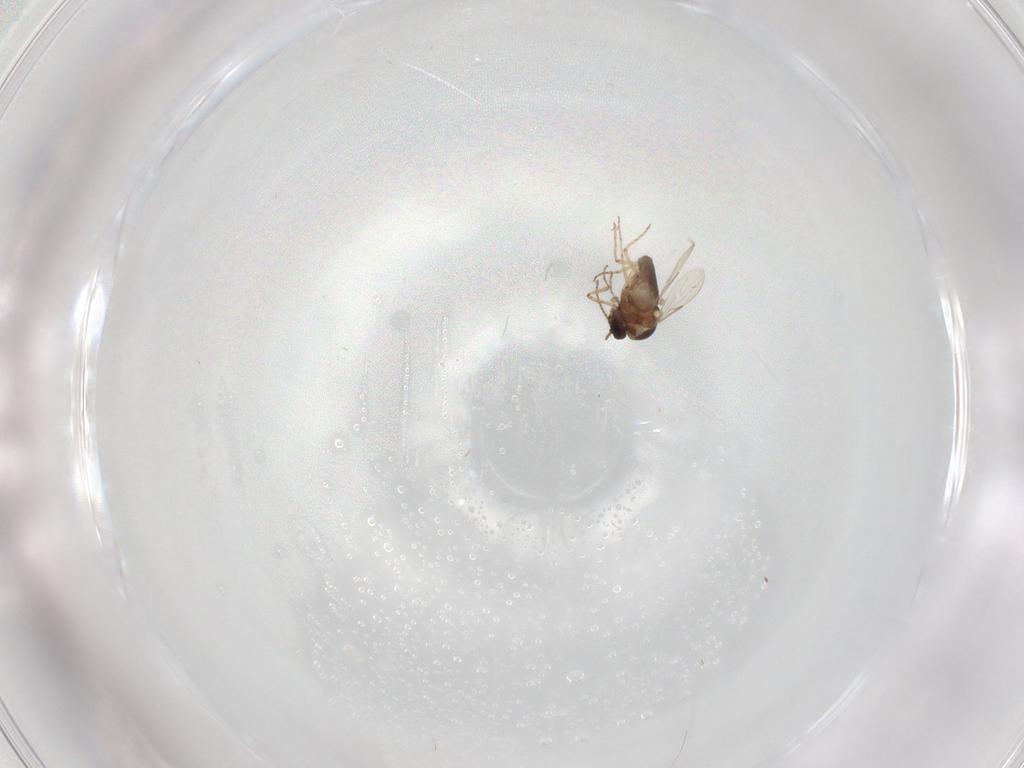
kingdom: Animalia
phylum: Arthropoda
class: Insecta
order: Diptera
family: Ceratopogonidae
